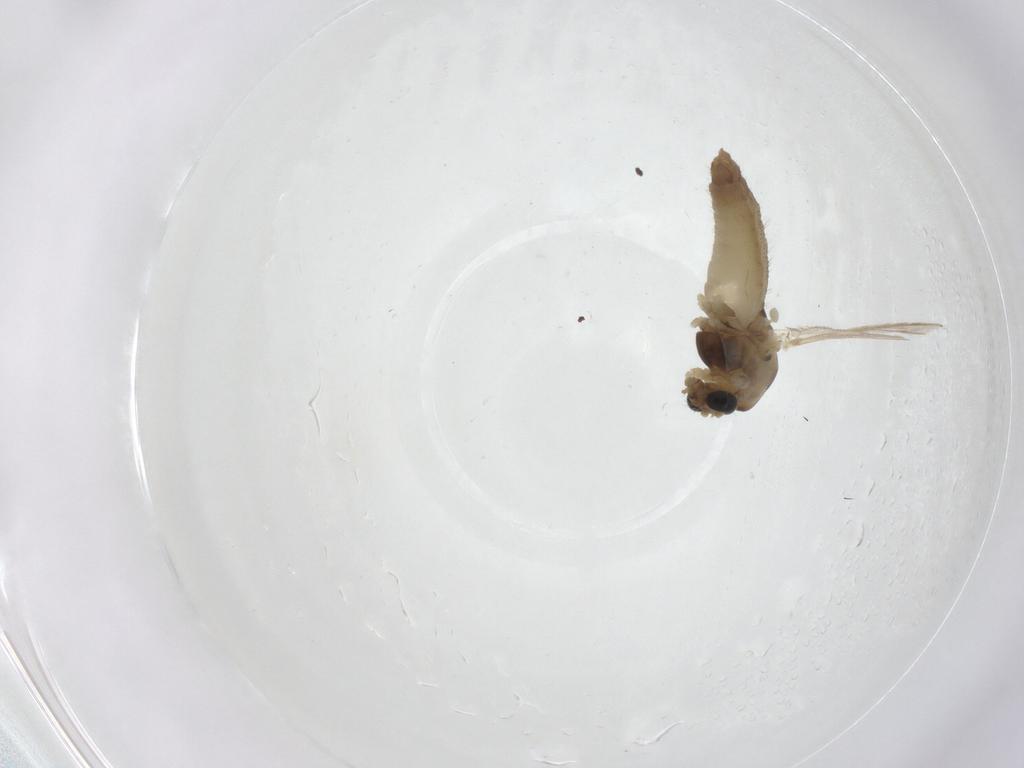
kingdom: Animalia
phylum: Arthropoda
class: Insecta
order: Diptera
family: Chironomidae
